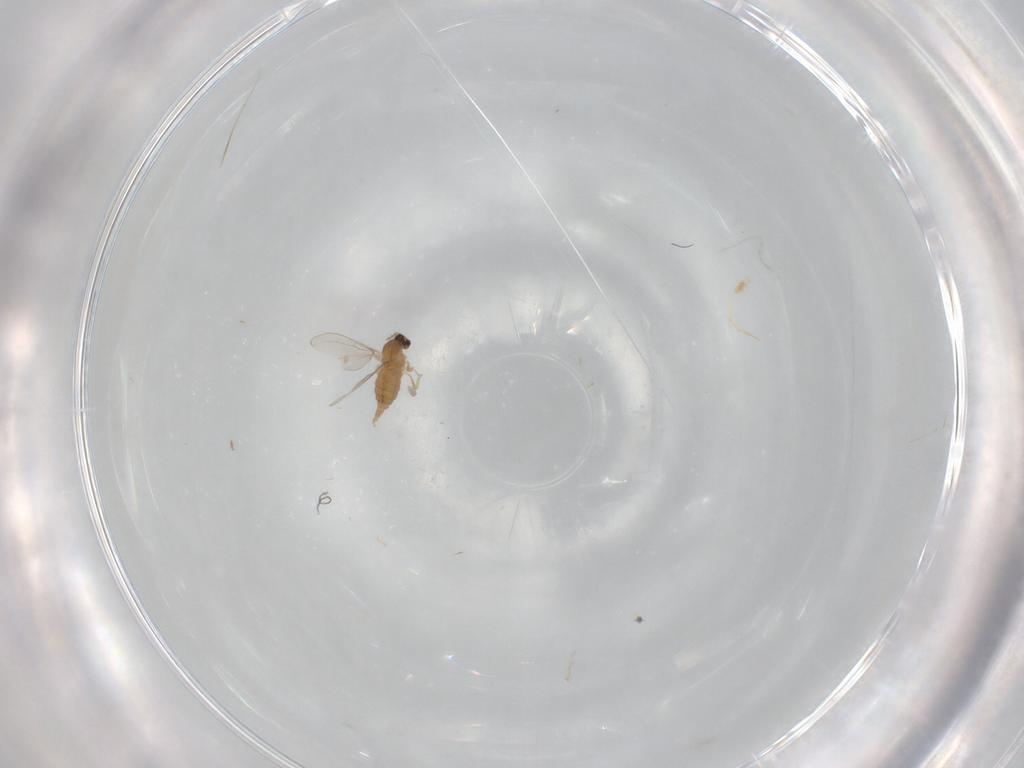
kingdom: Animalia
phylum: Arthropoda
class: Insecta
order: Diptera
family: Cecidomyiidae
